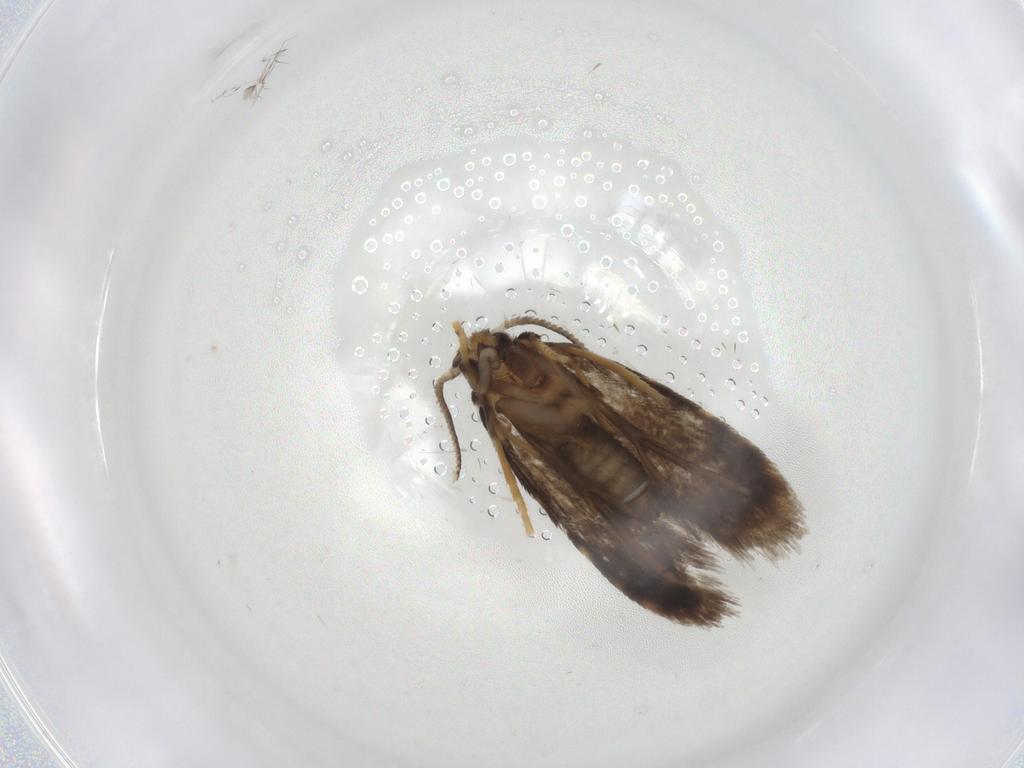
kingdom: Animalia
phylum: Arthropoda
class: Insecta
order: Lepidoptera
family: Psychidae
